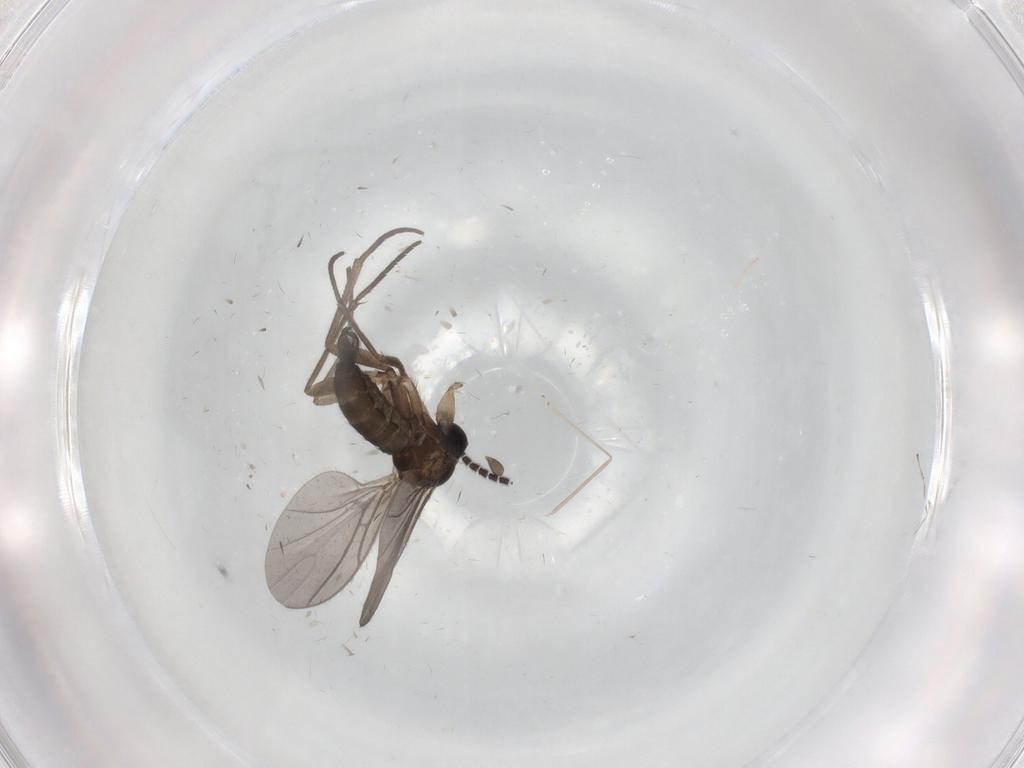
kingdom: Animalia
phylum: Arthropoda
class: Insecta
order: Diptera
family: Sciaridae
